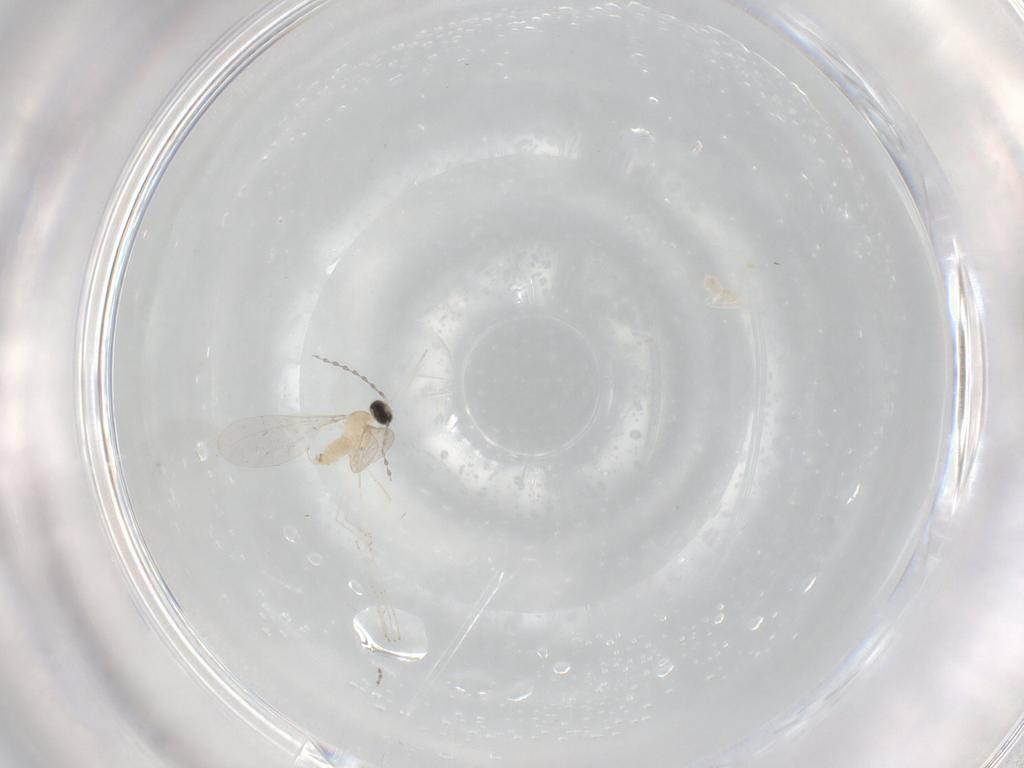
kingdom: Animalia
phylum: Arthropoda
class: Insecta
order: Diptera
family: Cecidomyiidae
